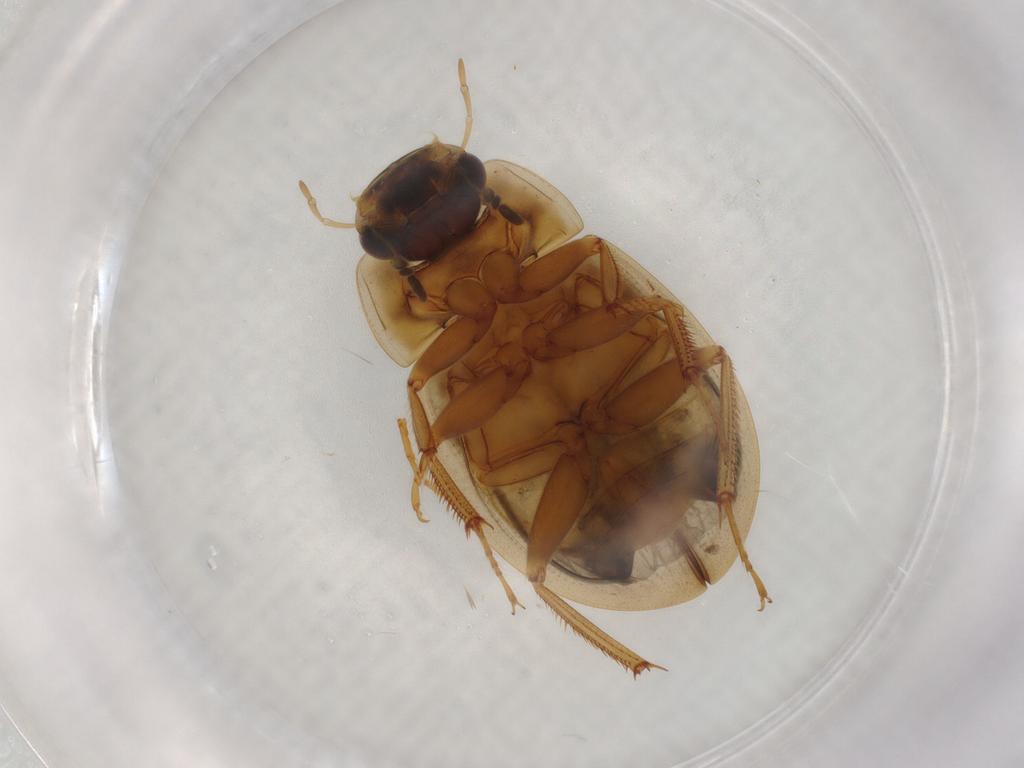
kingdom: Animalia
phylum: Arthropoda
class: Insecta
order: Coleoptera
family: Hydrophilidae
